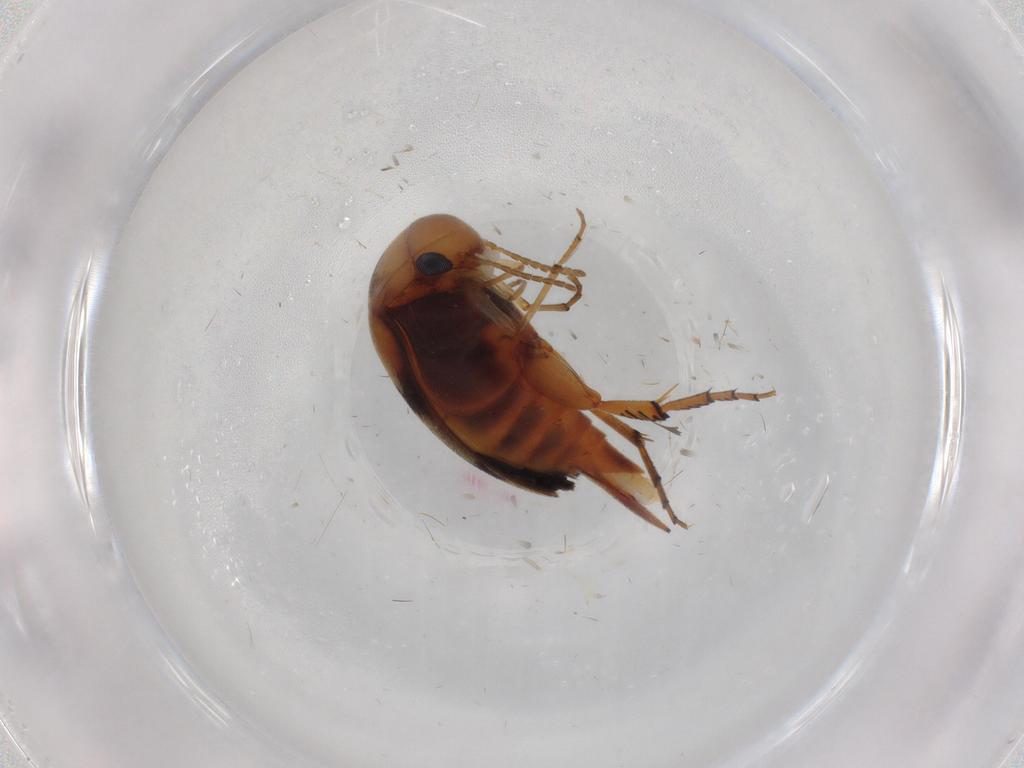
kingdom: Animalia
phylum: Arthropoda
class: Insecta
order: Coleoptera
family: Mordellidae
